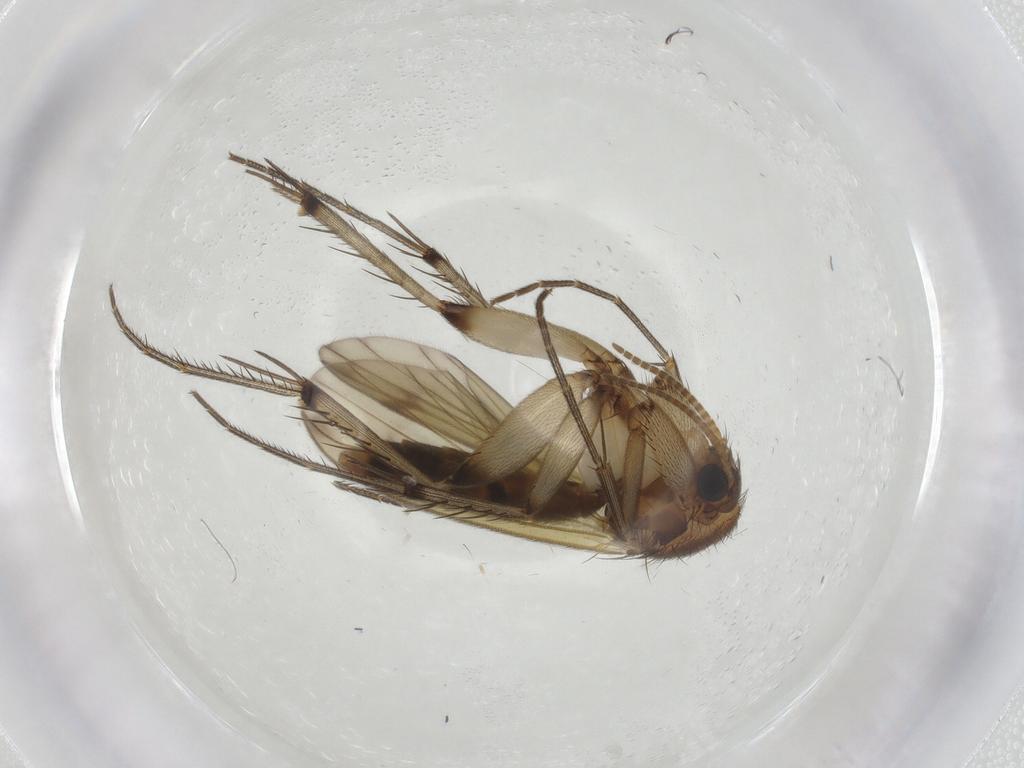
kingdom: Animalia
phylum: Arthropoda
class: Insecta
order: Diptera
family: Mycetophilidae
